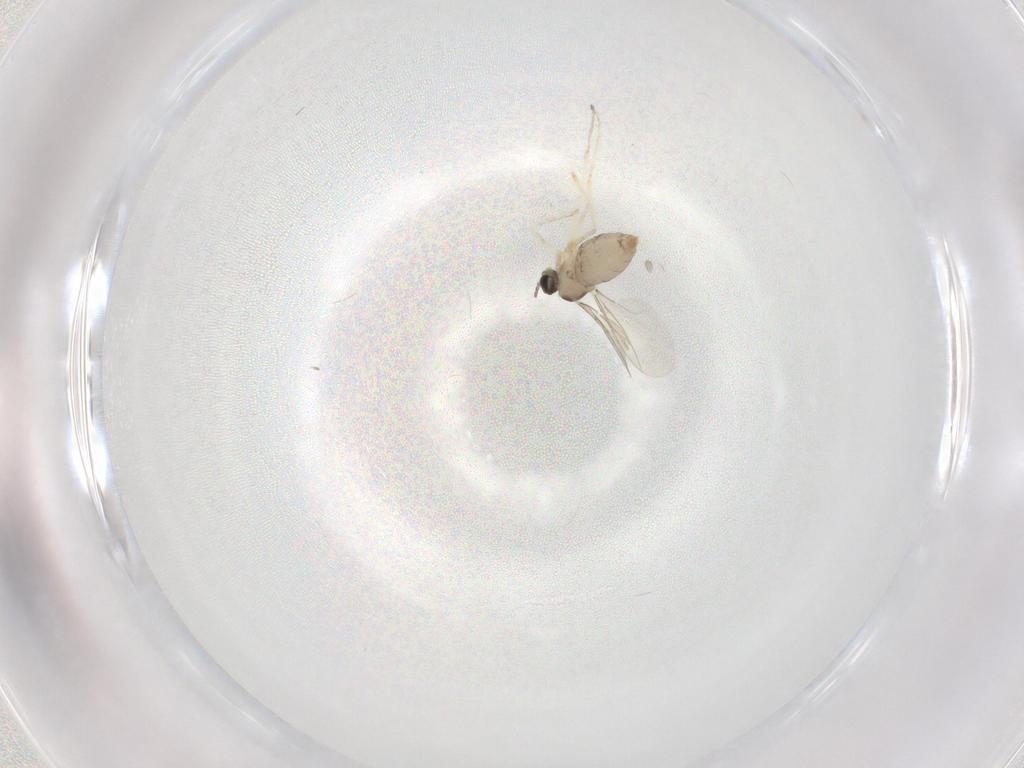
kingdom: Animalia
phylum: Arthropoda
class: Insecta
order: Diptera
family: Cecidomyiidae
